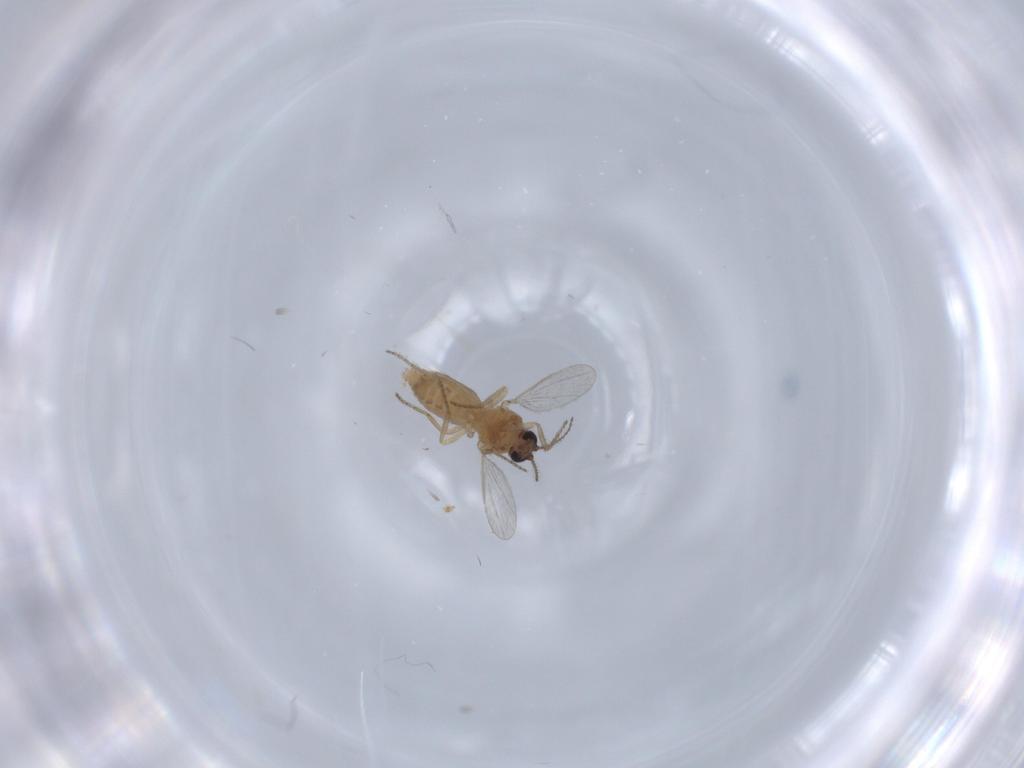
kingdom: Animalia
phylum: Arthropoda
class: Insecta
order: Diptera
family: Ceratopogonidae
